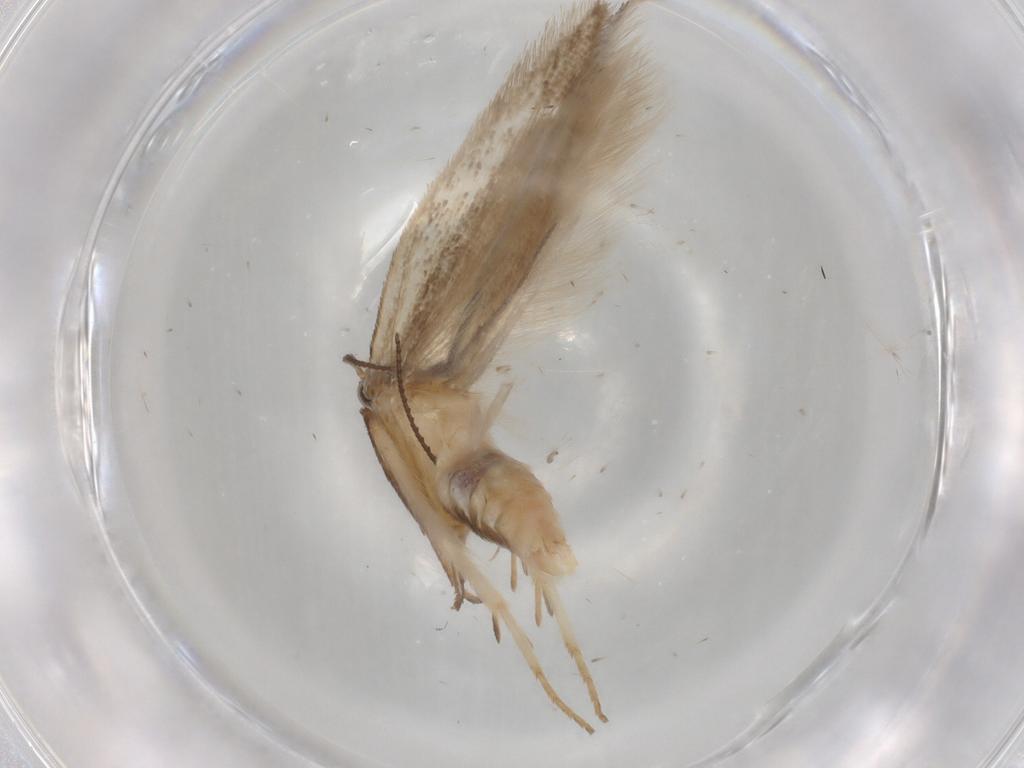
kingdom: Animalia
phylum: Arthropoda
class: Insecta
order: Lepidoptera
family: Gelechiidae
